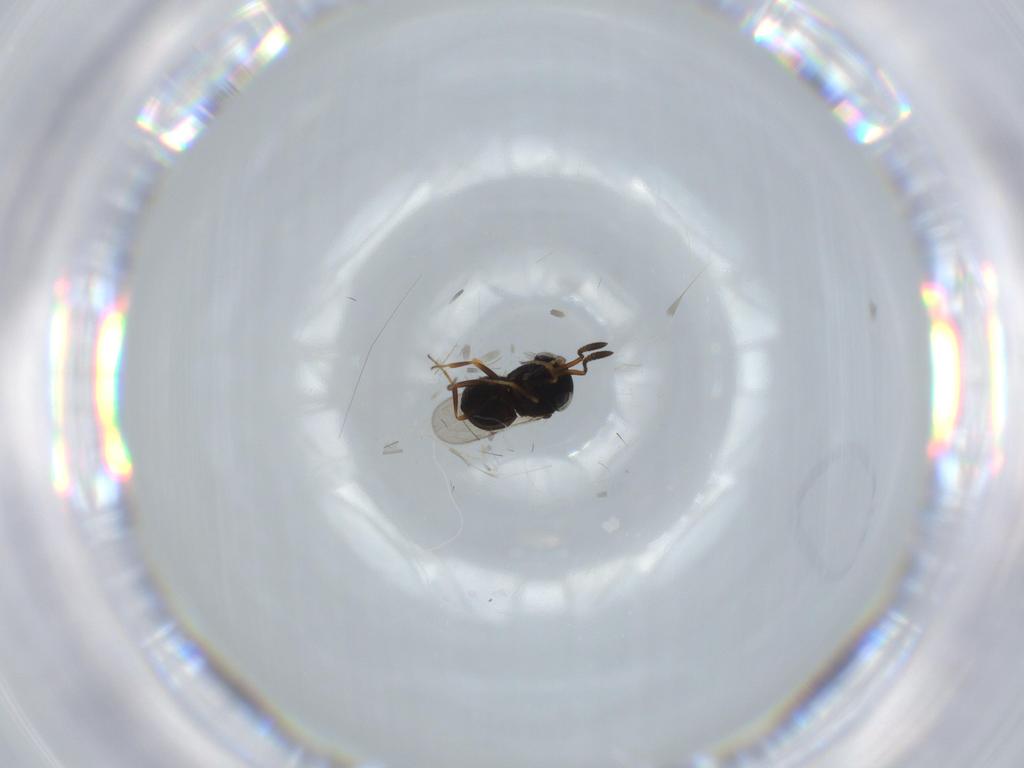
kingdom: Animalia
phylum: Arthropoda
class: Insecta
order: Hymenoptera
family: Scelionidae
